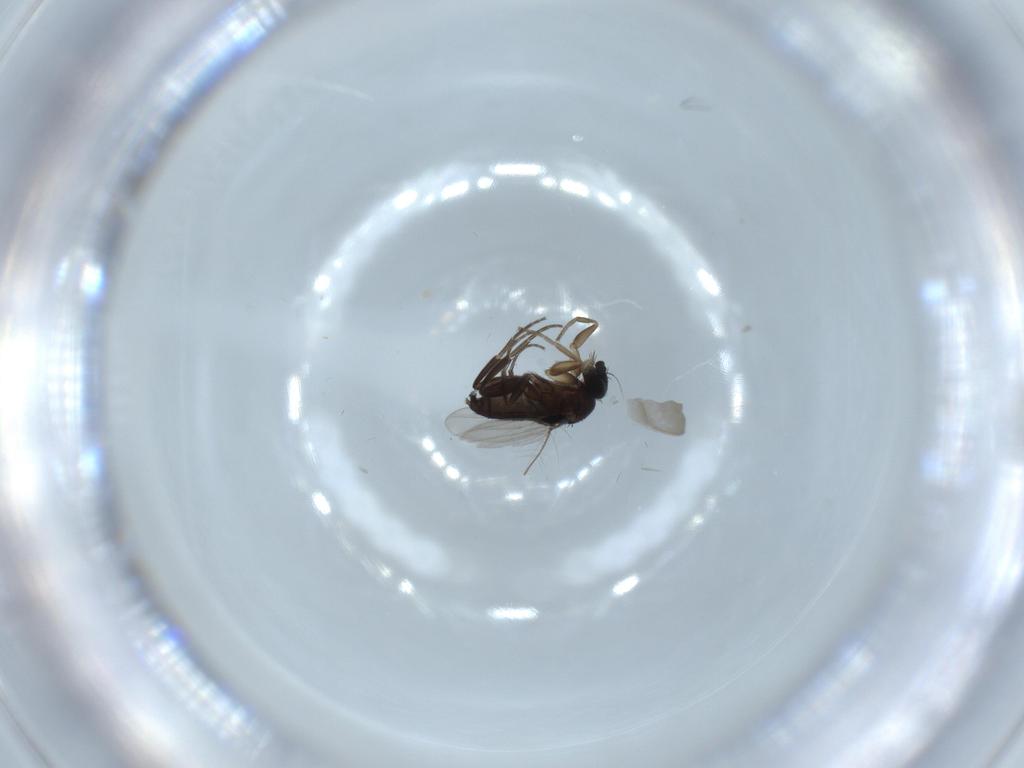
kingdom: Animalia
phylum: Arthropoda
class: Insecta
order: Diptera
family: Phoridae
